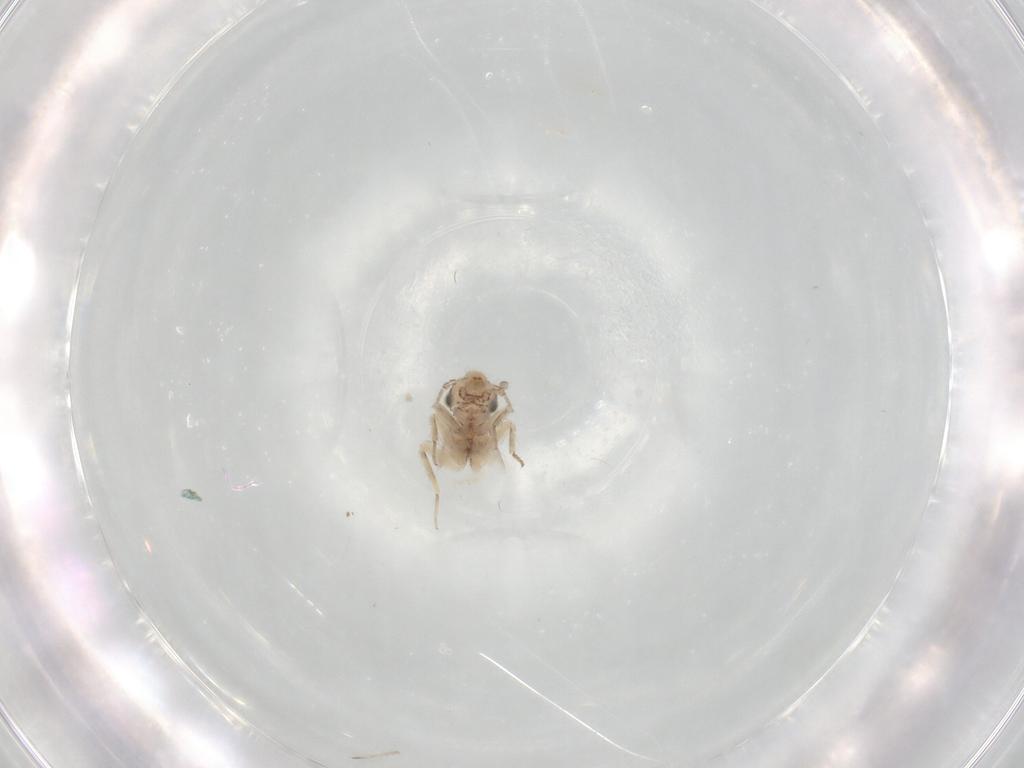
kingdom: Animalia
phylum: Arthropoda
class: Insecta
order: Psocodea
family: Lepidopsocidae
